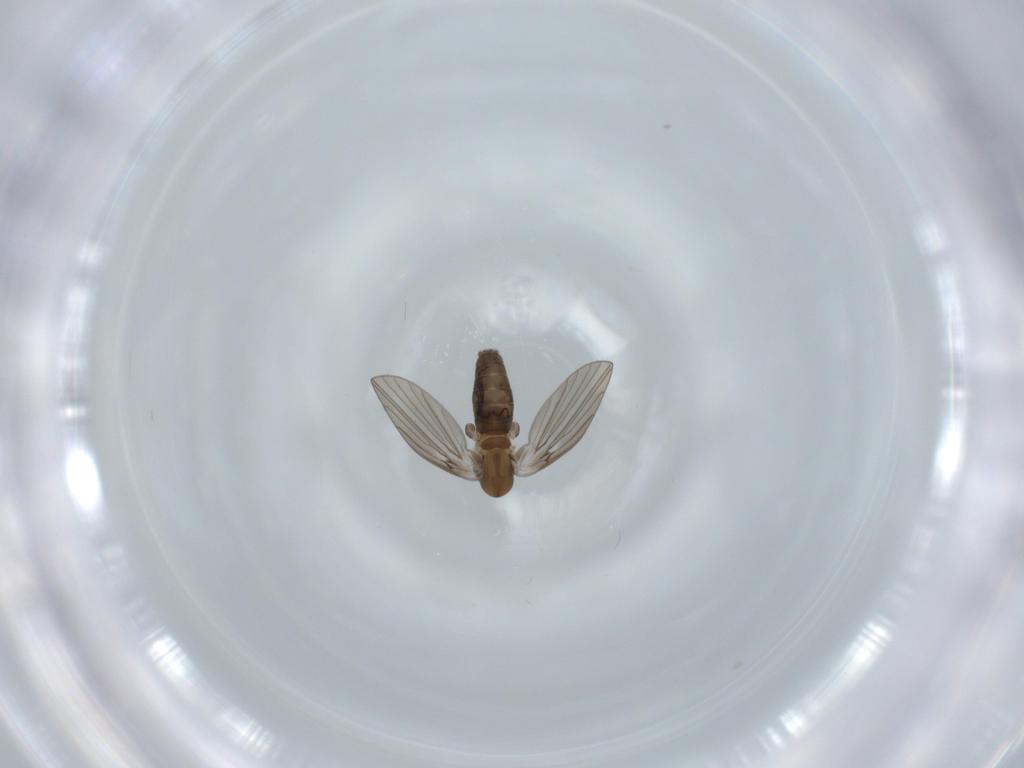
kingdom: Animalia
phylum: Arthropoda
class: Insecta
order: Diptera
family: Psychodidae
